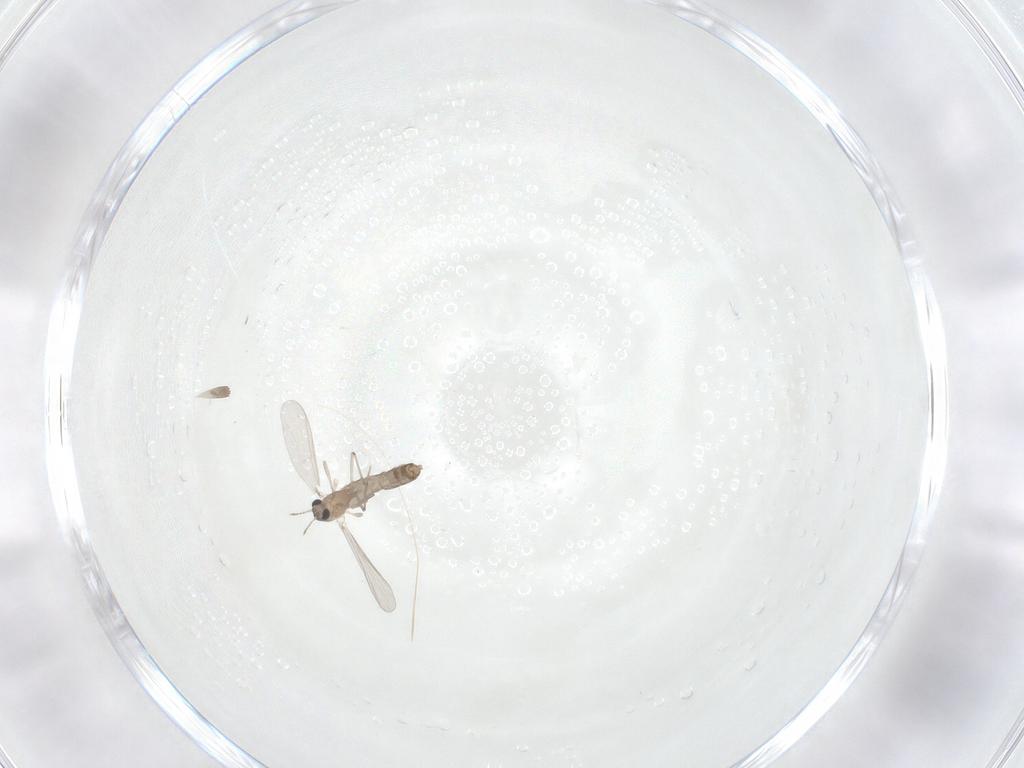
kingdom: Animalia
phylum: Arthropoda
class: Insecta
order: Diptera
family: Chironomidae
